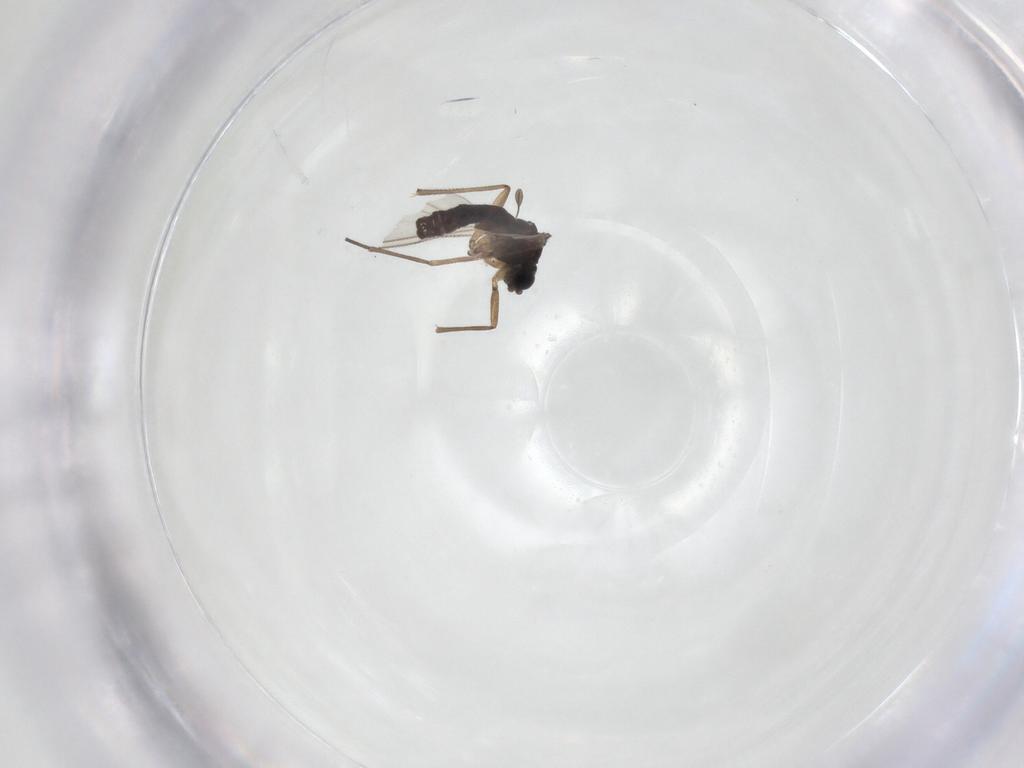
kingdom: Animalia
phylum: Arthropoda
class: Insecta
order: Diptera
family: Sciaridae
